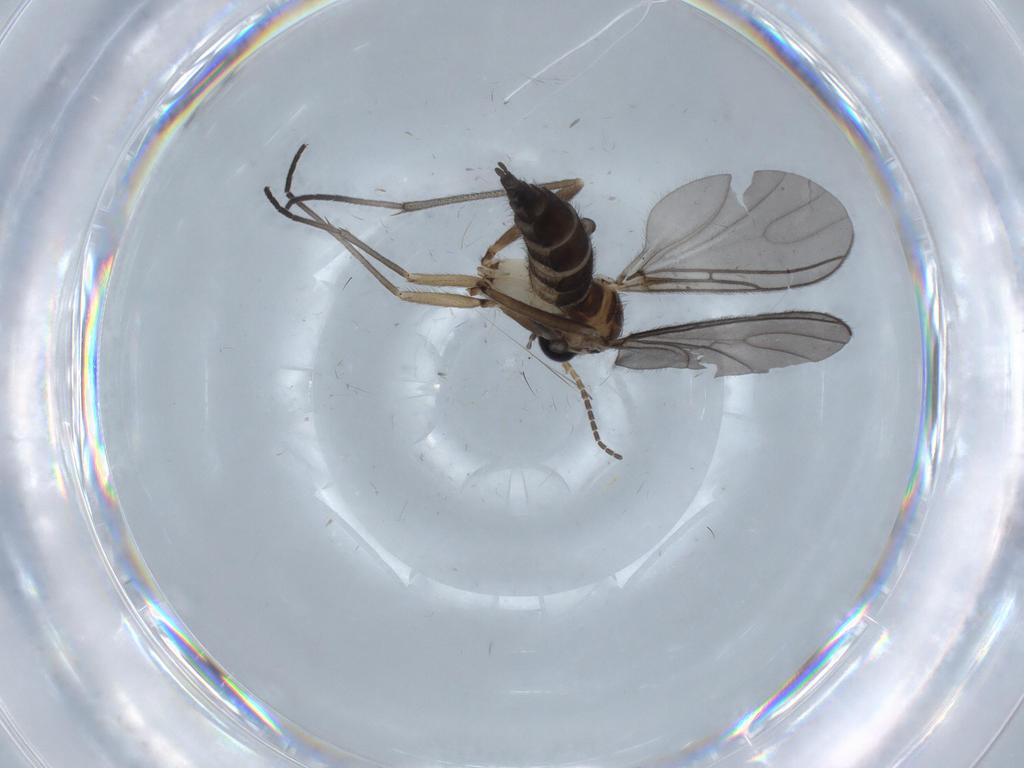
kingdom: Animalia
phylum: Arthropoda
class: Insecta
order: Diptera
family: Sciaridae
